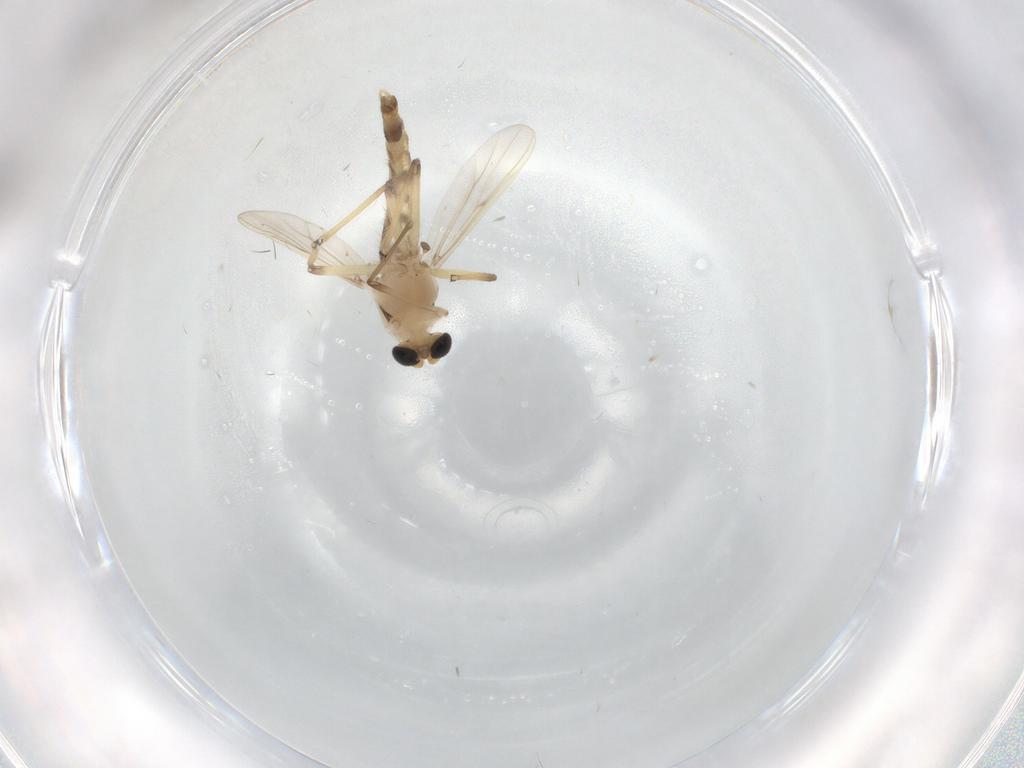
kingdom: Animalia
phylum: Arthropoda
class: Insecta
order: Diptera
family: Chironomidae
